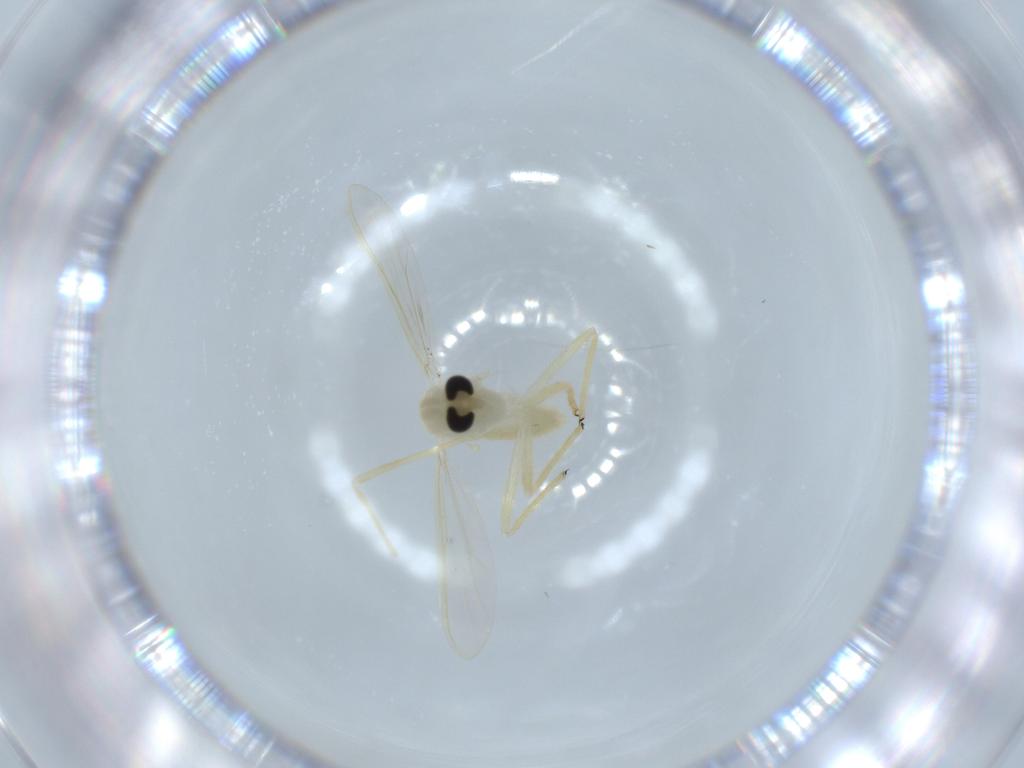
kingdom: Animalia
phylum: Arthropoda
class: Insecta
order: Diptera
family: Chironomidae
